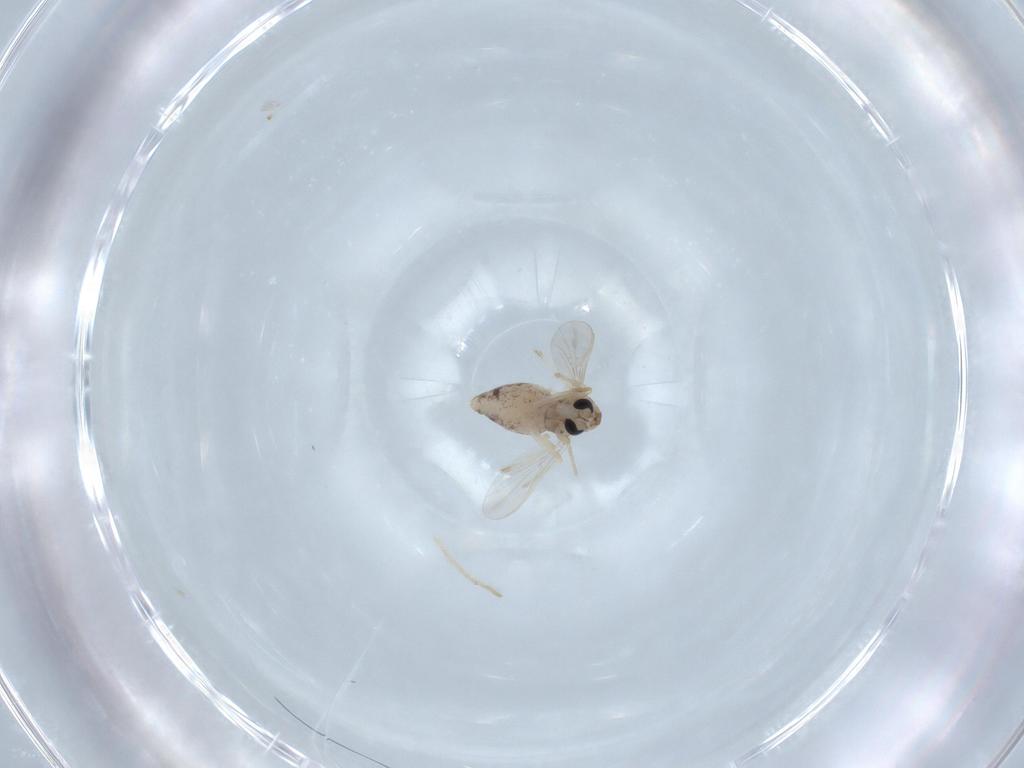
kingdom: Animalia
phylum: Arthropoda
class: Insecta
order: Diptera
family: Chironomidae
